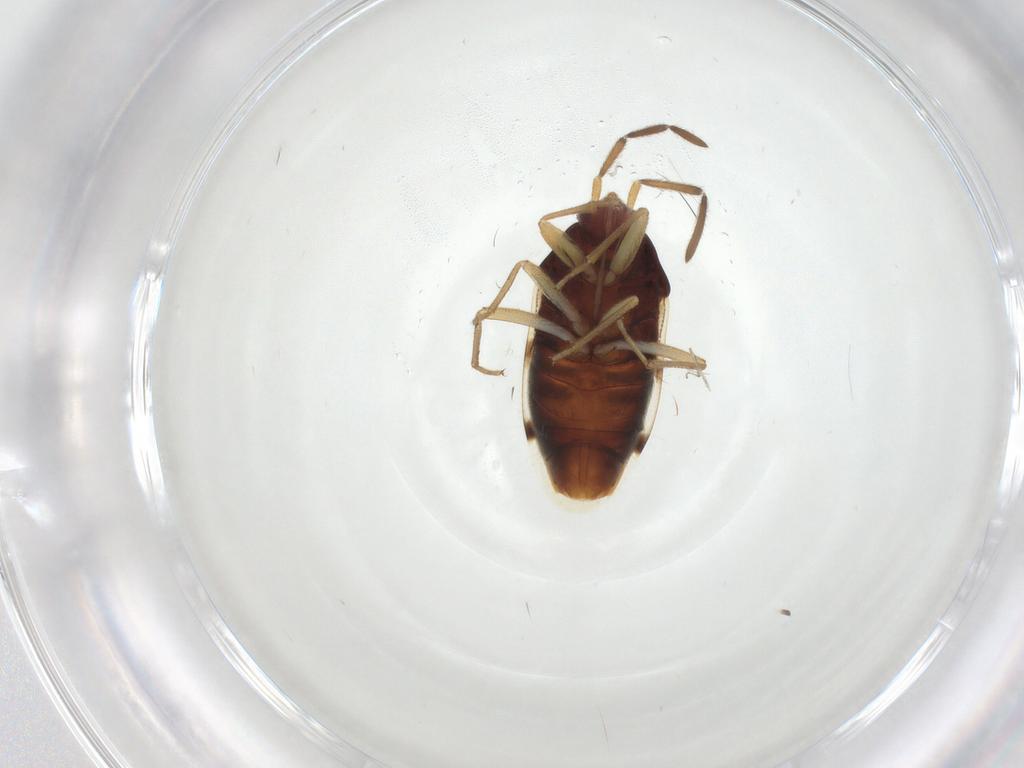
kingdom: Animalia
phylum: Arthropoda
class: Insecta
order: Hemiptera
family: Rhyparochromidae
